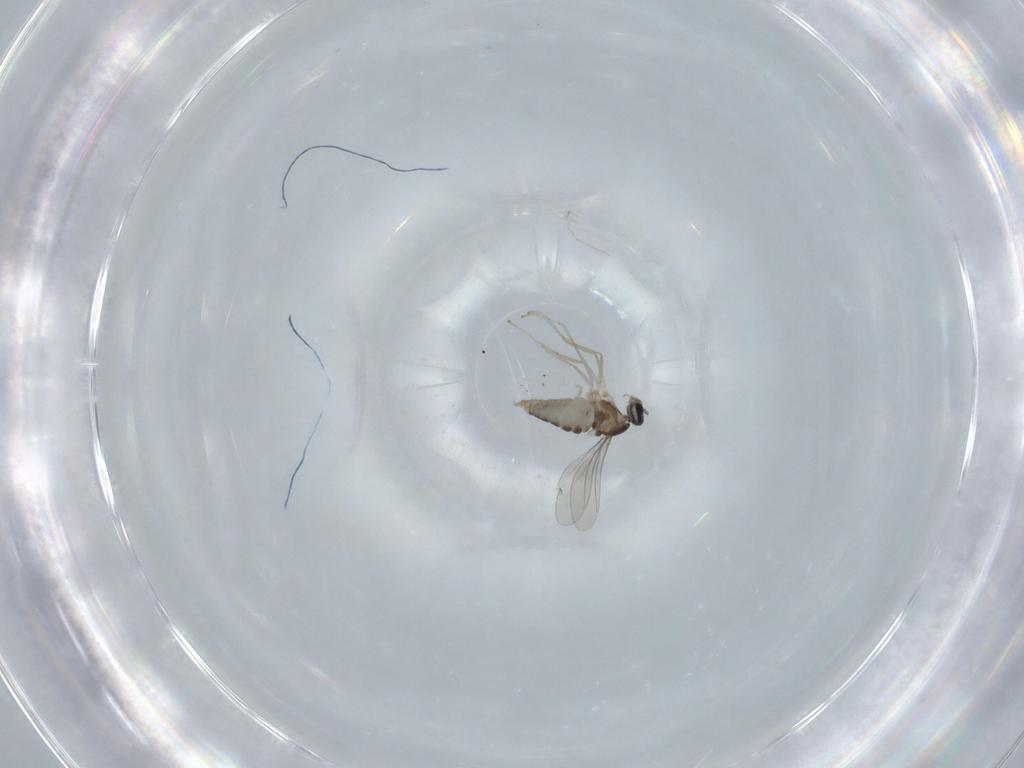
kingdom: Animalia
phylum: Arthropoda
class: Insecta
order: Diptera
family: Cecidomyiidae
